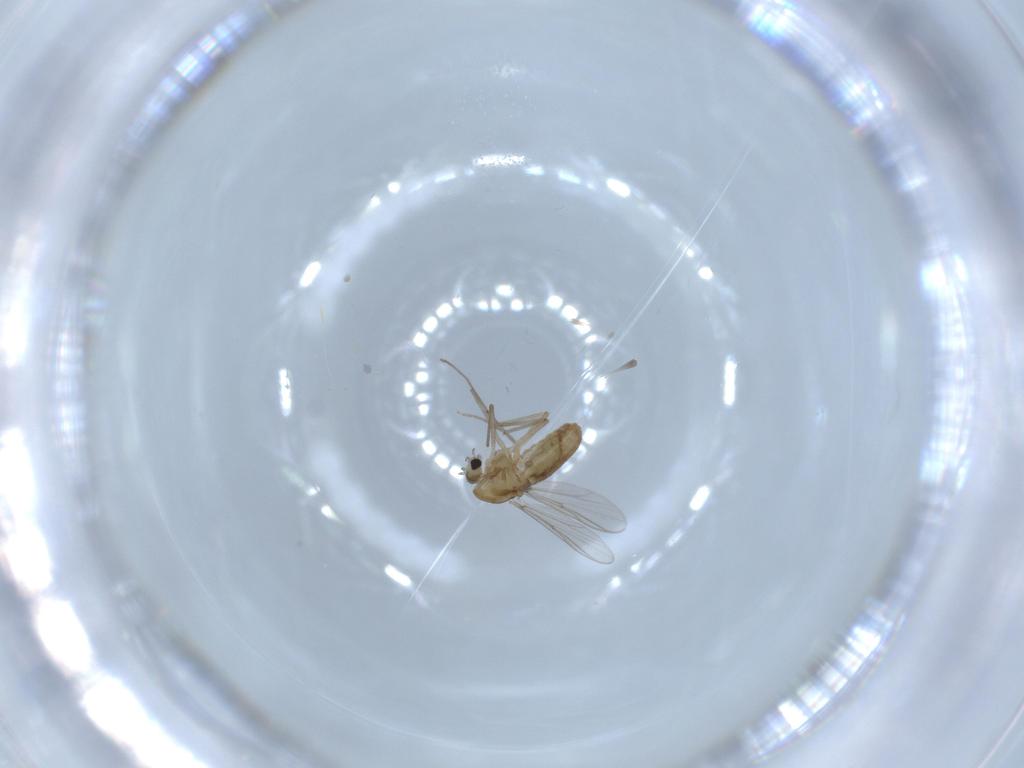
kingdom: Animalia
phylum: Arthropoda
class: Insecta
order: Diptera
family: Chironomidae
